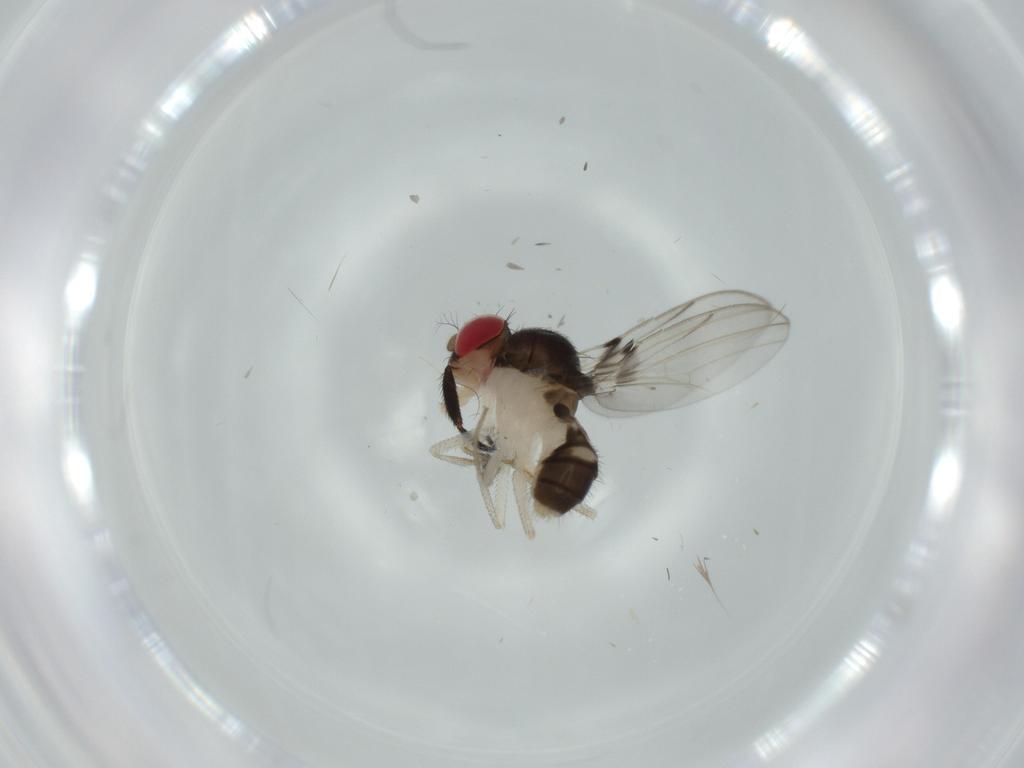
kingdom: Animalia
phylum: Arthropoda
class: Insecta
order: Diptera
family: Drosophilidae
